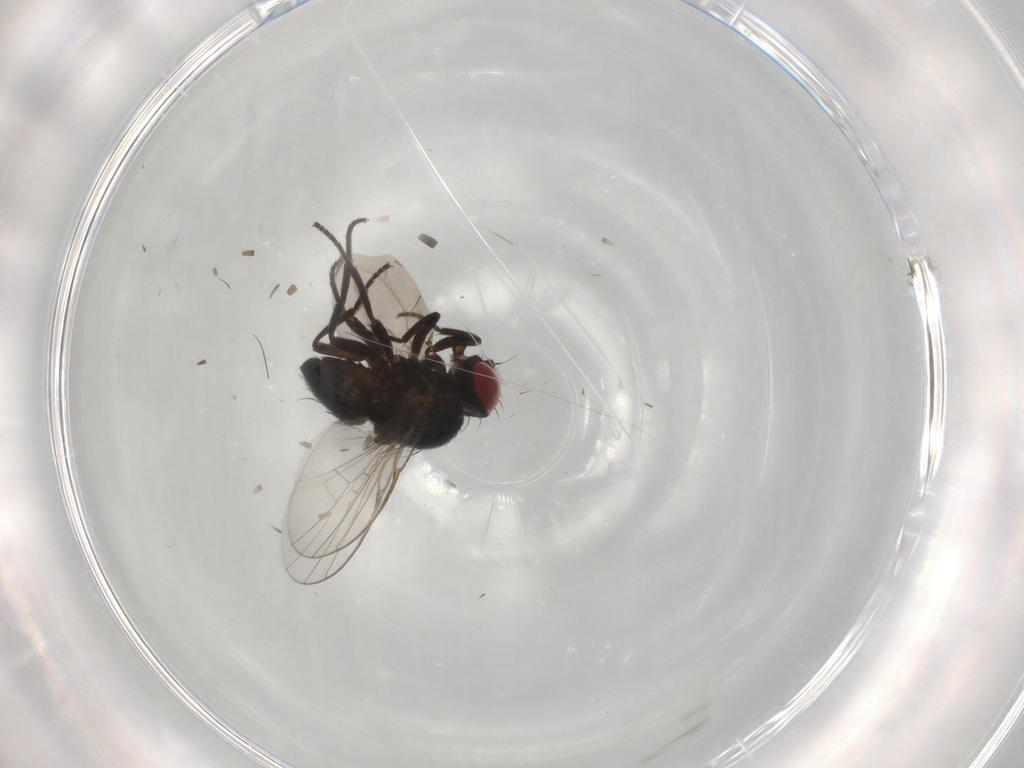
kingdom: Animalia
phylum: Arthropoda
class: Insecta
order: Diptera
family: Agromyzidae
